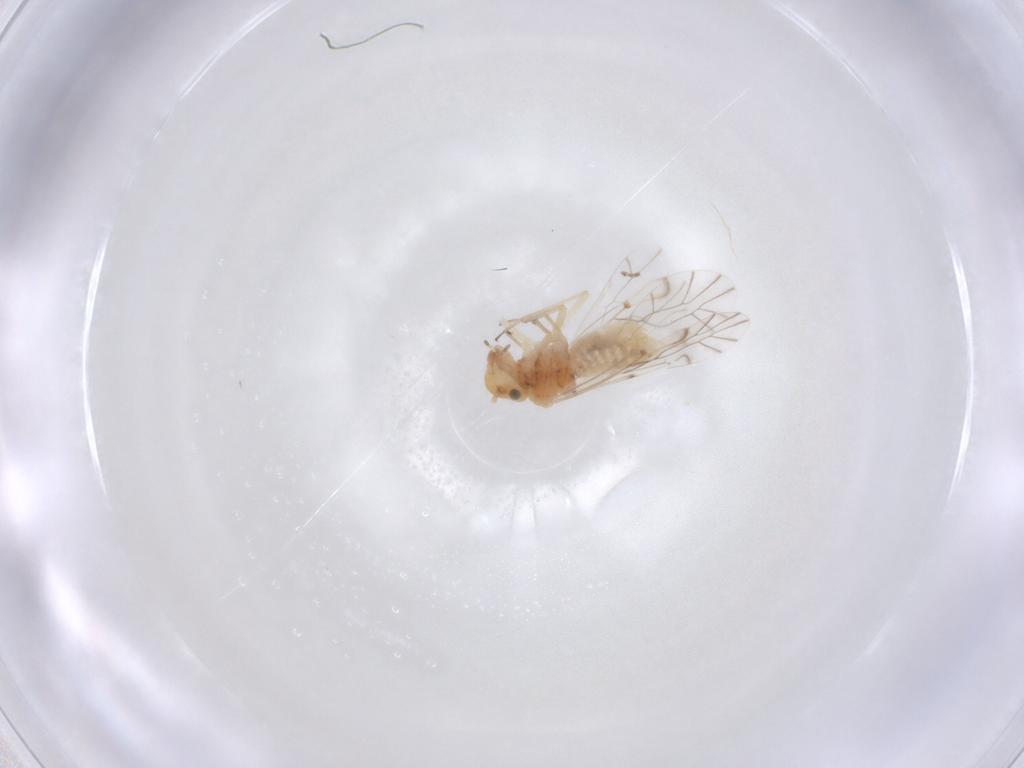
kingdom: Animalia
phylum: Arthropoda
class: Insecta
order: Psocodea
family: Lachesillidae
